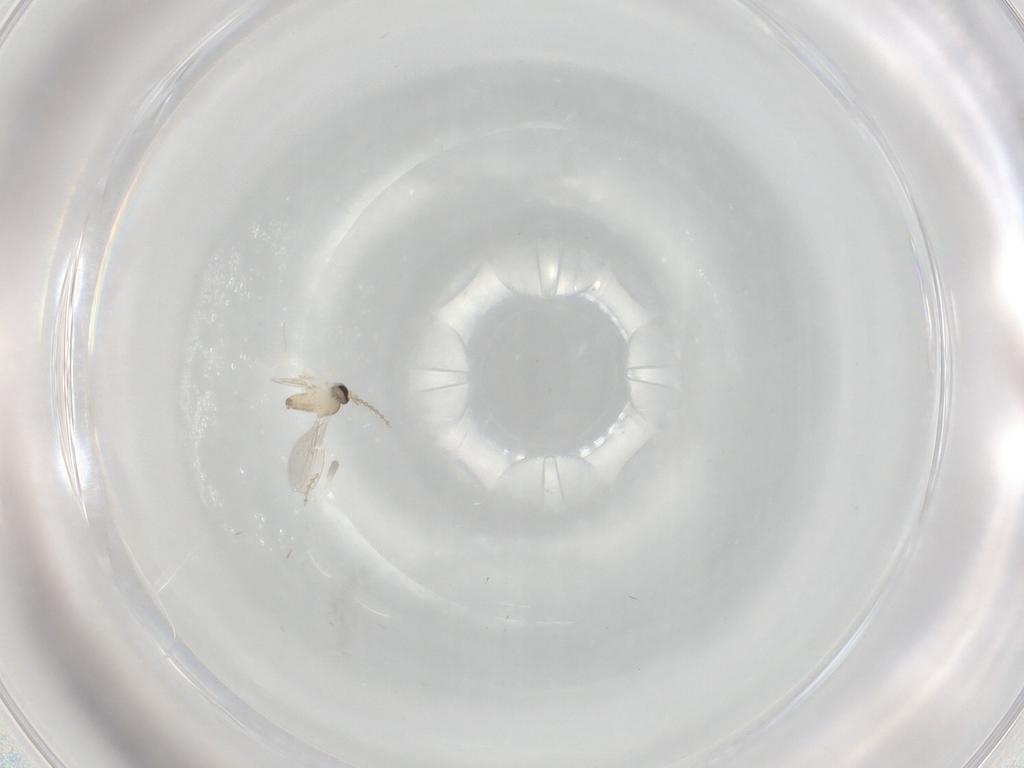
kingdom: Animalia
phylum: Arthropoda
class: Insecta
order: Diptera
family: Cecidomyiidae
